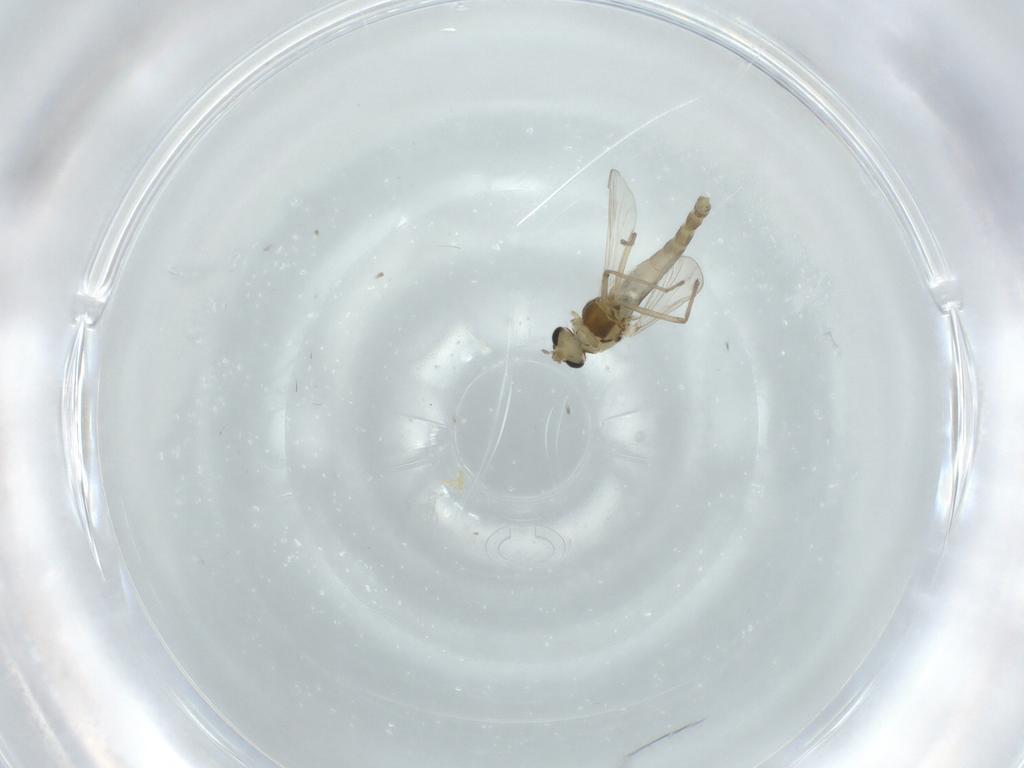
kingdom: Animalia
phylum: Arthropoda
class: Insecta
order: Diptera
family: Chironomidae
